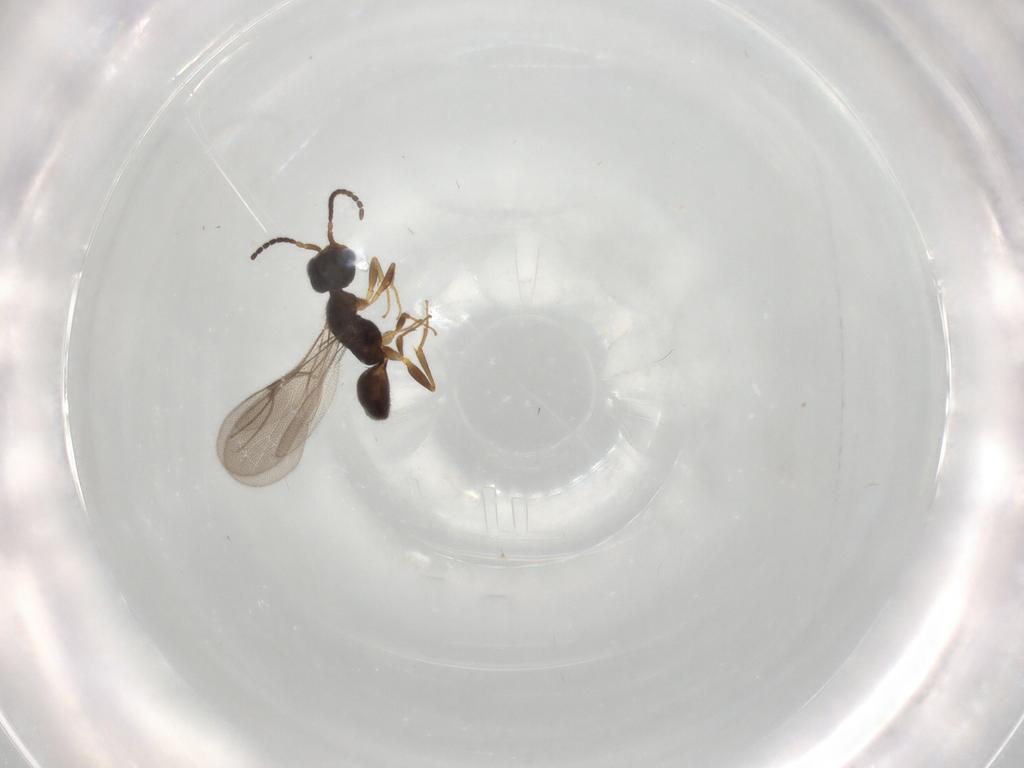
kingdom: Animalia
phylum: Arthropoda
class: Insecta
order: Hymenoptera
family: Bethylidae
